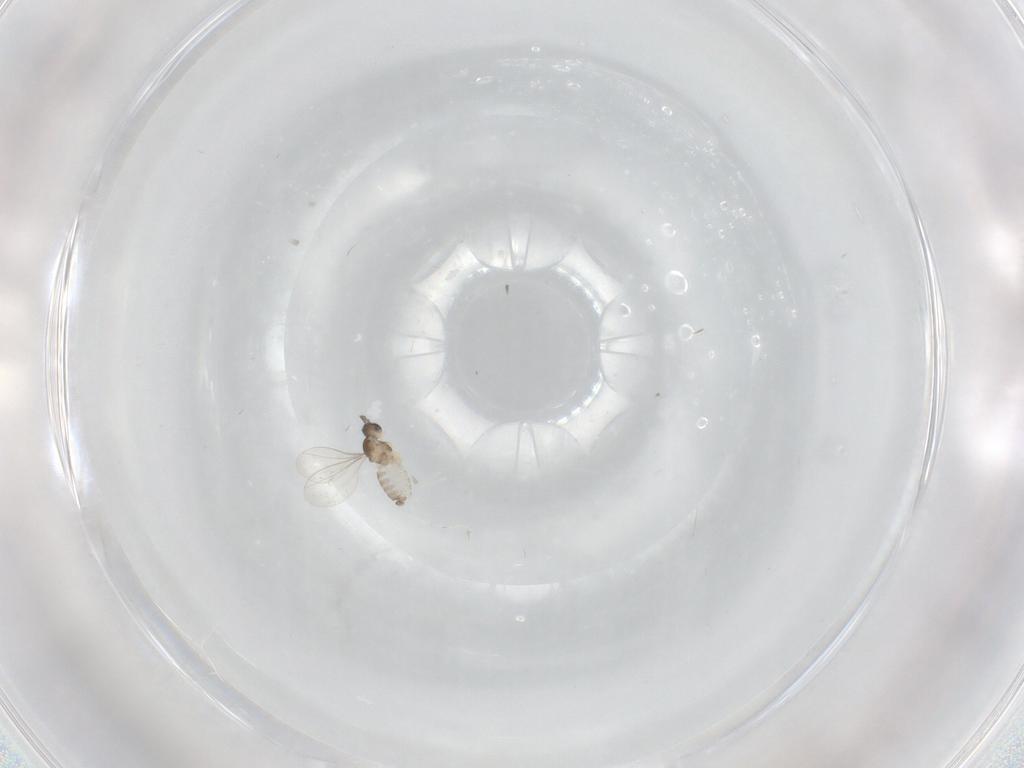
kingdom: Animalia
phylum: Arthropoda
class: Insecta
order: Diptera
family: Cecidomyiidae
